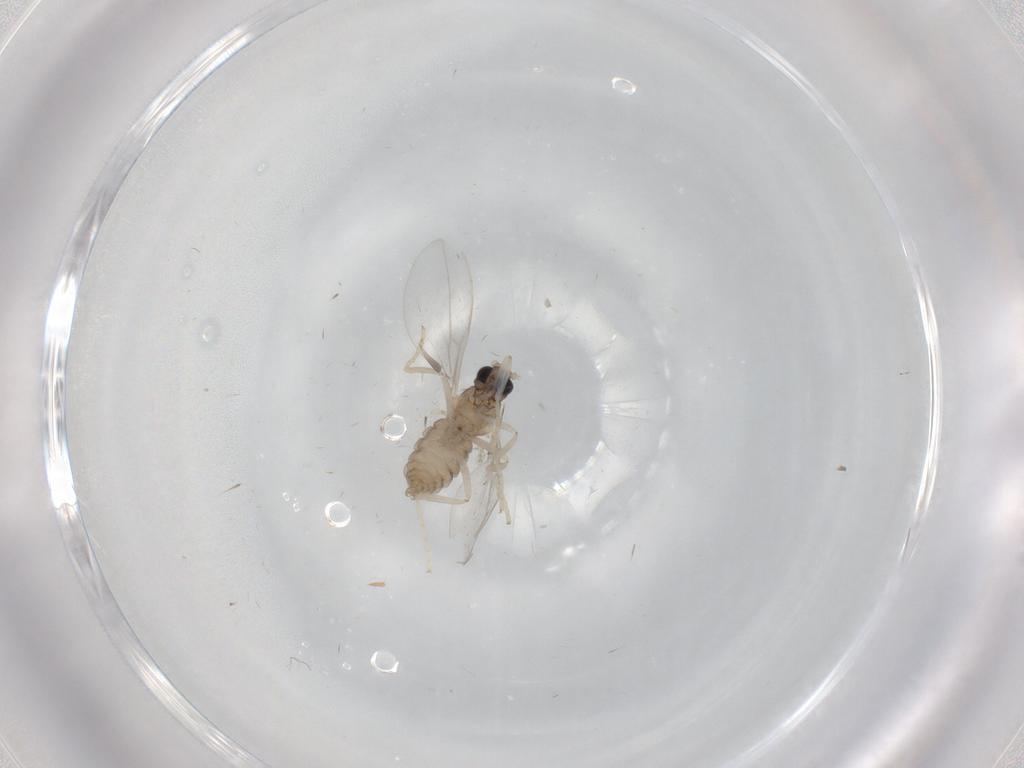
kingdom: Animalia
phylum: Arthropoda
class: Insecta
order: Diptera
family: Cecidomyiidae
